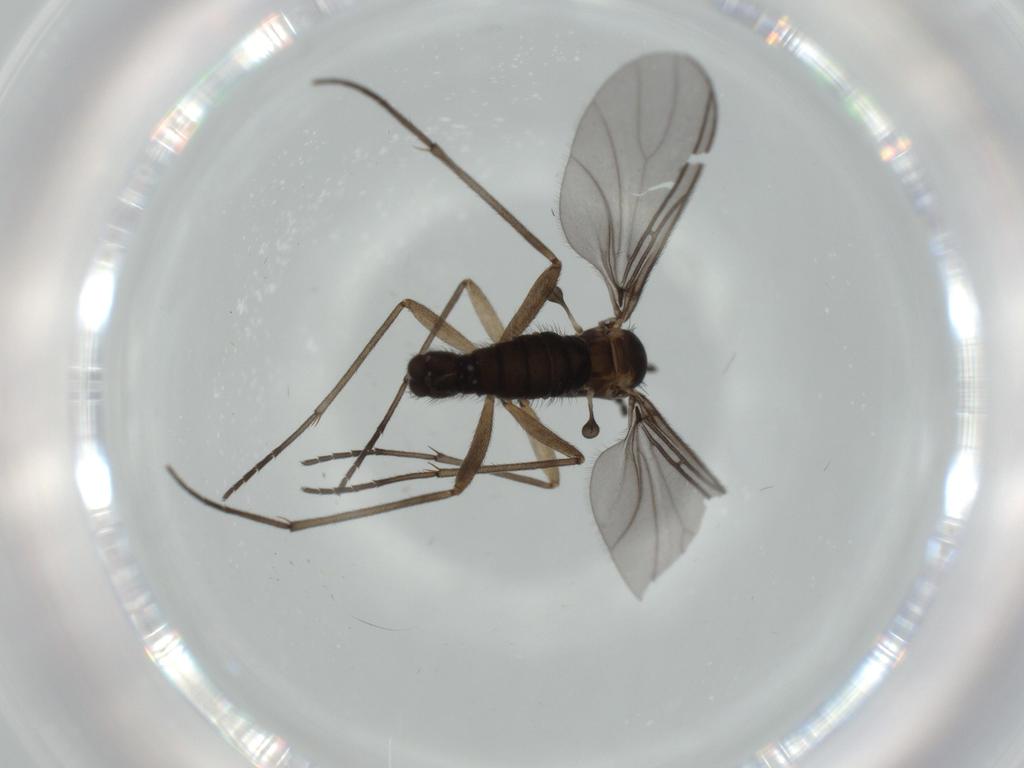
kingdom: Animalia
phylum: Arthropoda
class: Insecta
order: Diptera
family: Sciaridae
